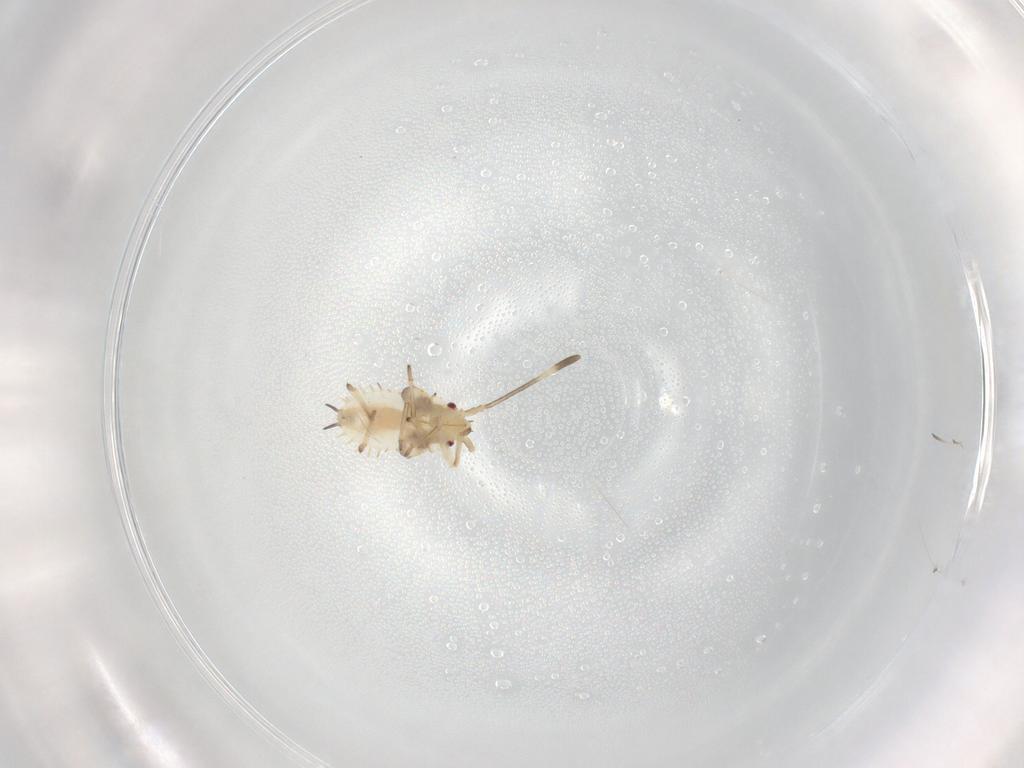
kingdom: Animalia
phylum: Arthropoda
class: Insecta
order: Hemiptera
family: Tingidae
